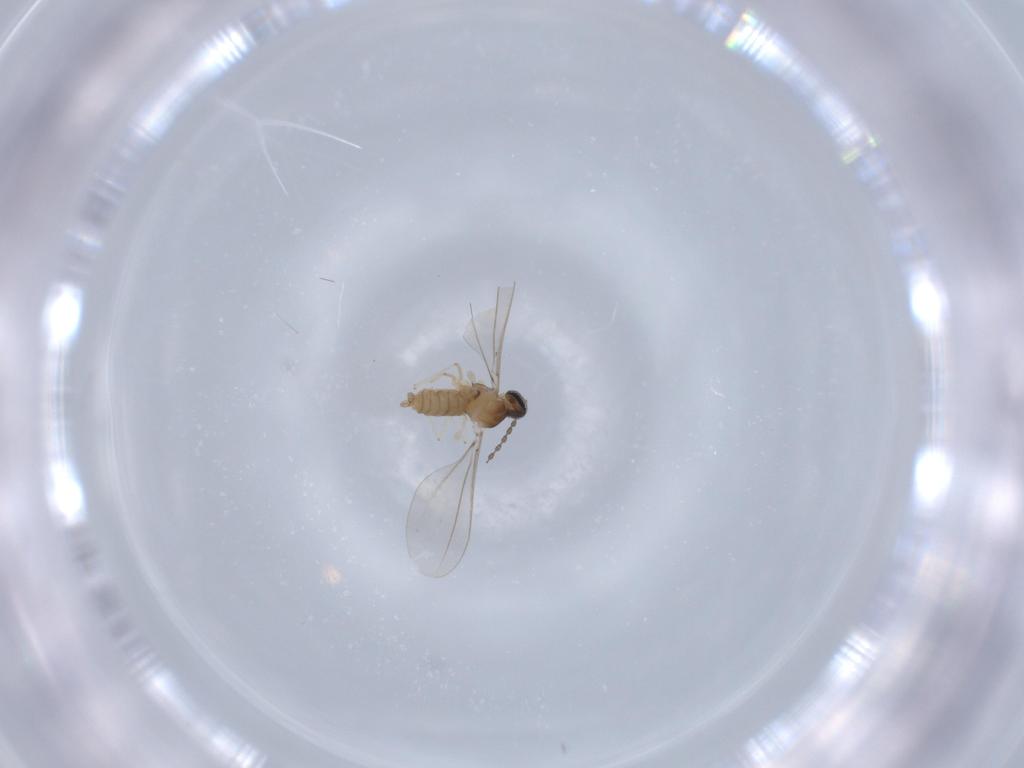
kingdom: Animalia
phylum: Arthropoda
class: Insecta
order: Diptera
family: Cecidomyiidae
